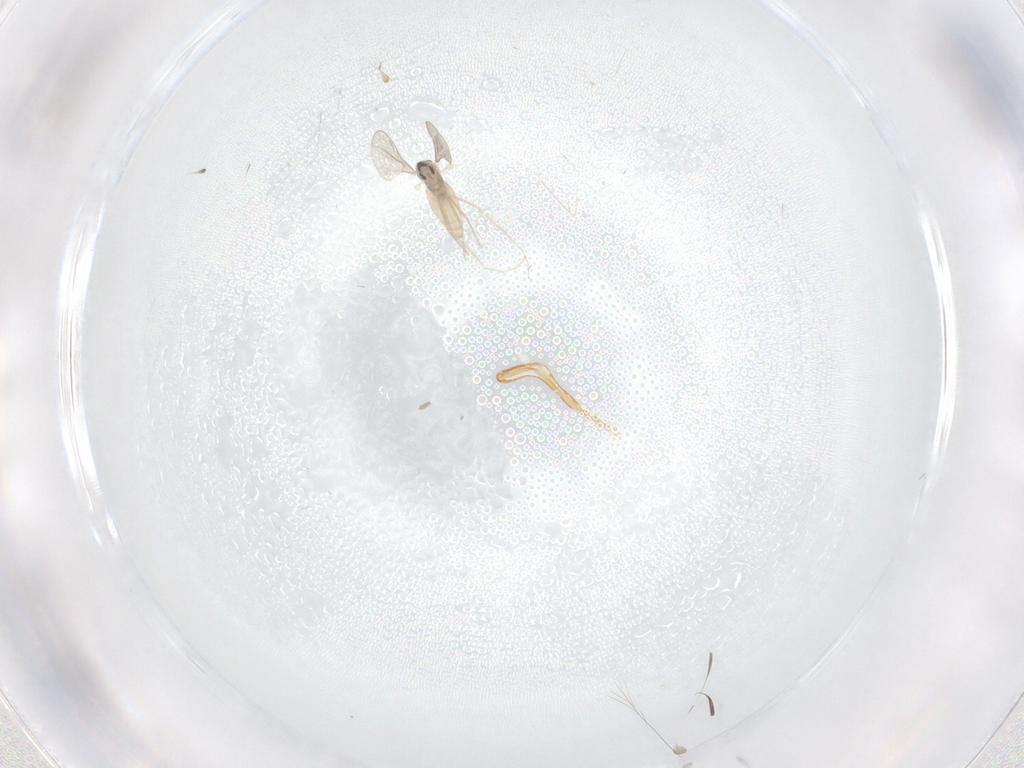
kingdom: Animalia
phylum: Arthropoda
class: Insecta
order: Diptera
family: Cecidomyiidae
